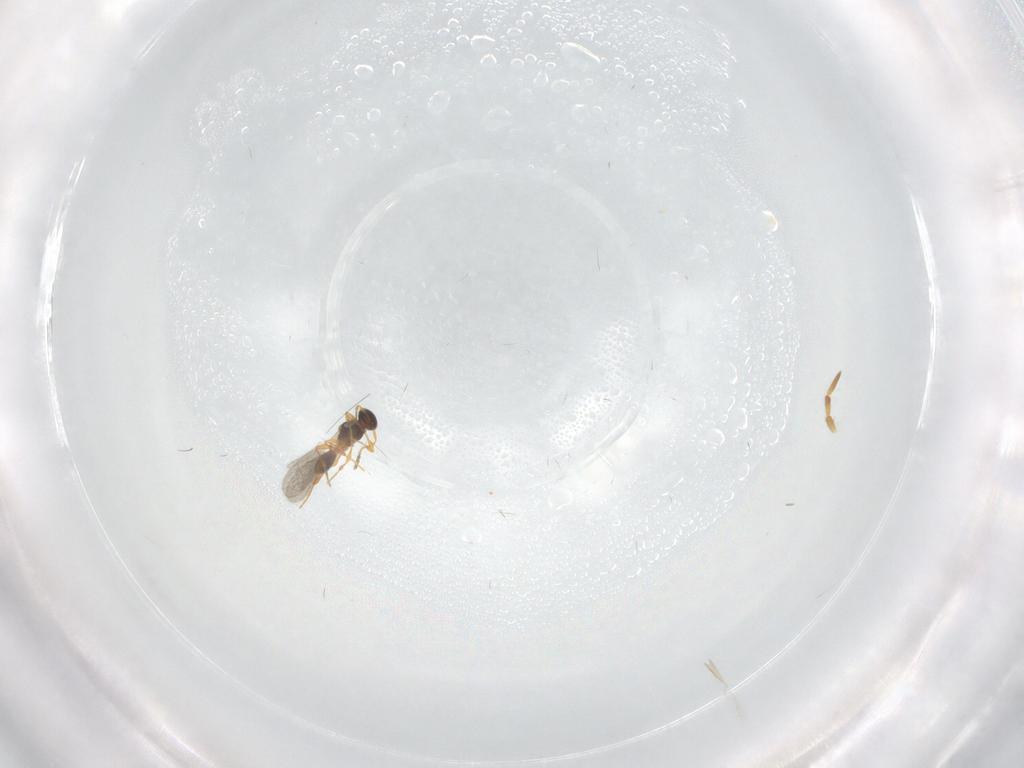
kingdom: Animalia
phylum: Arthropoda
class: Insecta
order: Hymenoptera
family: Platygastridae
